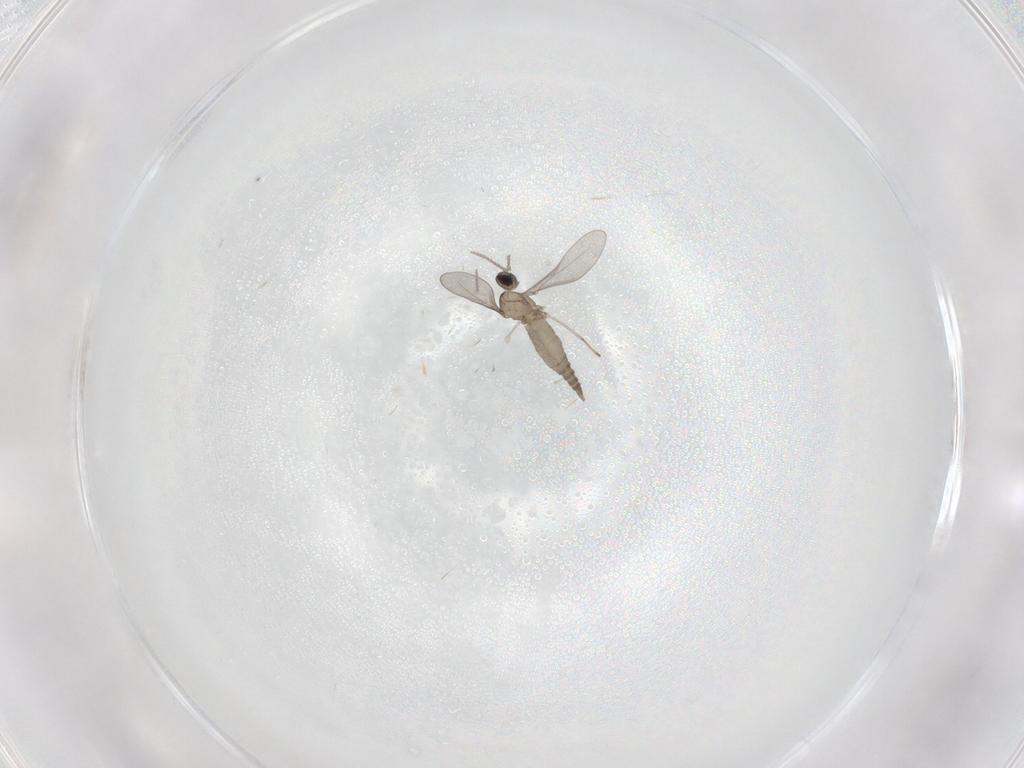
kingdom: Animalia
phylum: Arthropoda
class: Insecta
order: Diptera
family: Cecidomyiidae
